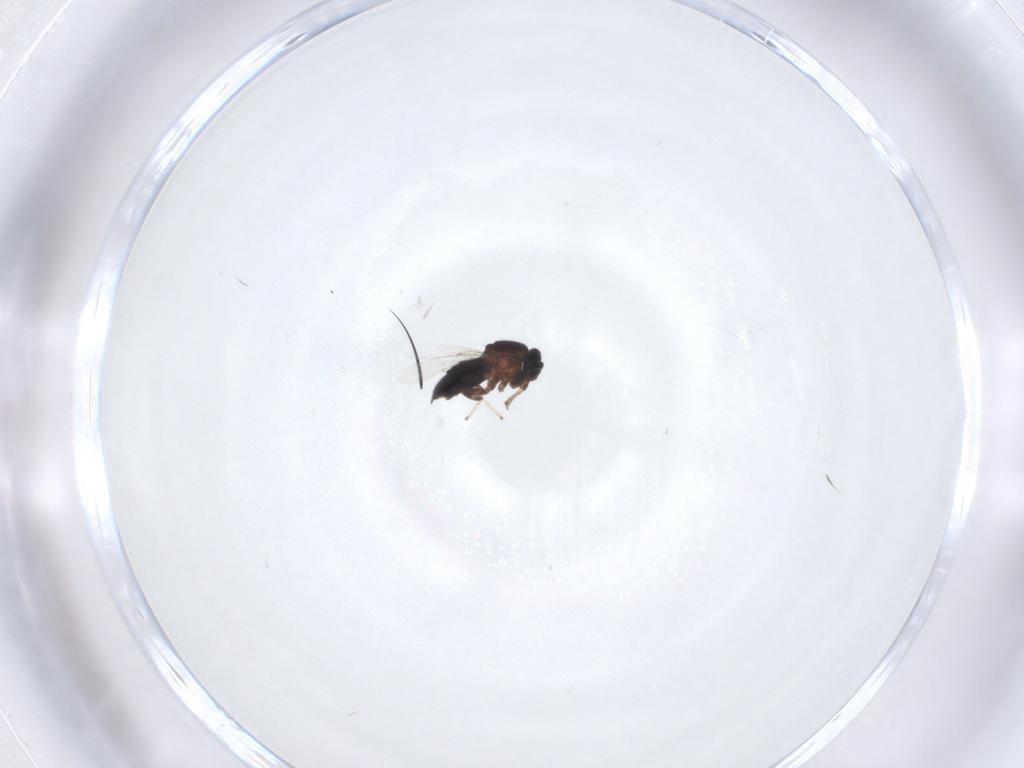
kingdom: Animalia
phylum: Arthropoda
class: Insecta
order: Diptera
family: Scatopsidae
